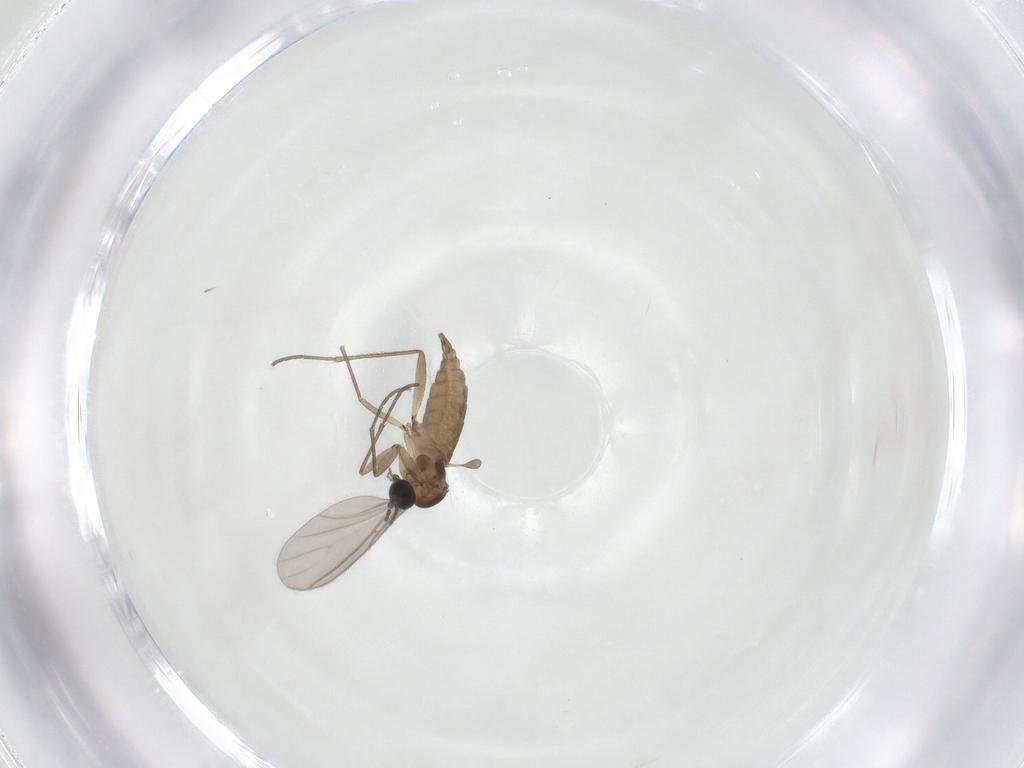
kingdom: Animalia
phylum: Arthropoda
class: Insecta
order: Diptera
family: Sciaridae
